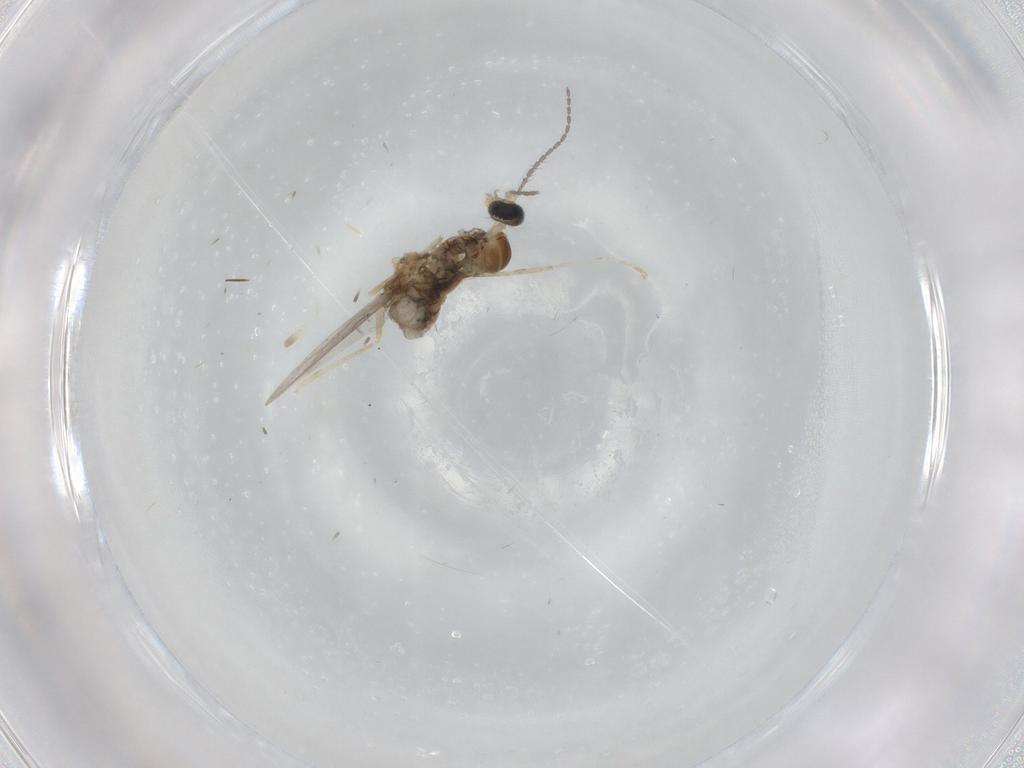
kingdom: Animalia
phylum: Arthropoda
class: Insecta
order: Diptera
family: Cecidomyiidae
